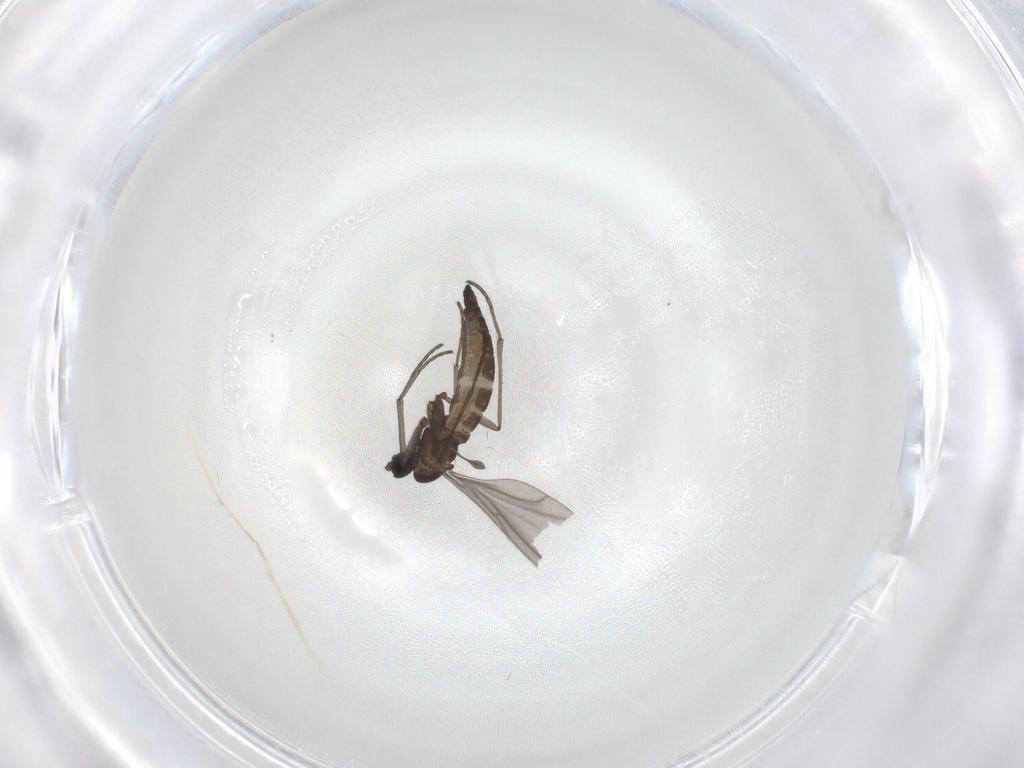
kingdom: Animalia
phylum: Arthropoda
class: Insecta
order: Diptera
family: Sciaridae
